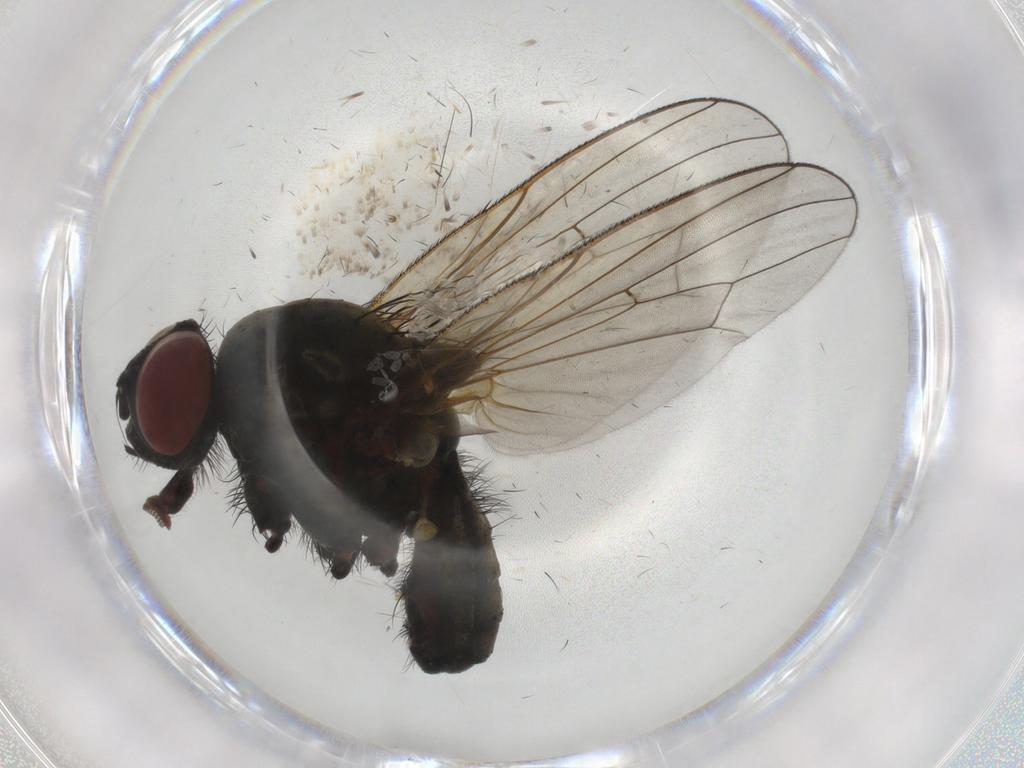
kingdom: Animalia
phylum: Arthropoda
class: Insecta
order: Diptera
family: Anthomyiidae
